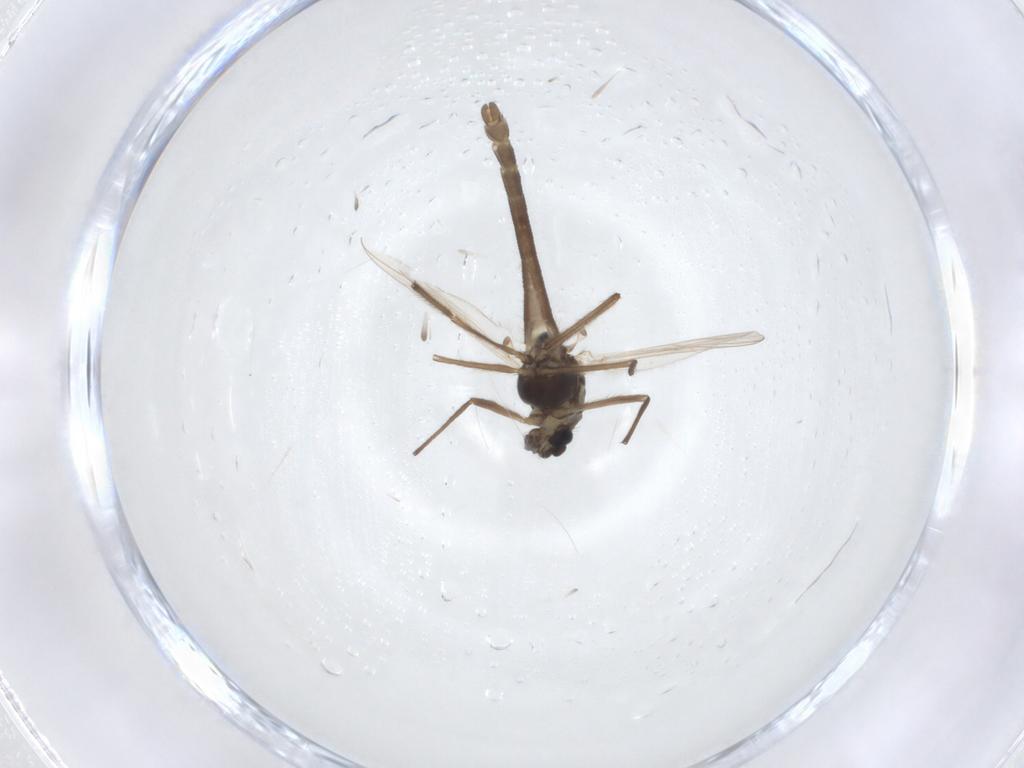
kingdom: Animalia
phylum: Arthropoda
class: Insecta
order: Diptera
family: Chironomidae
